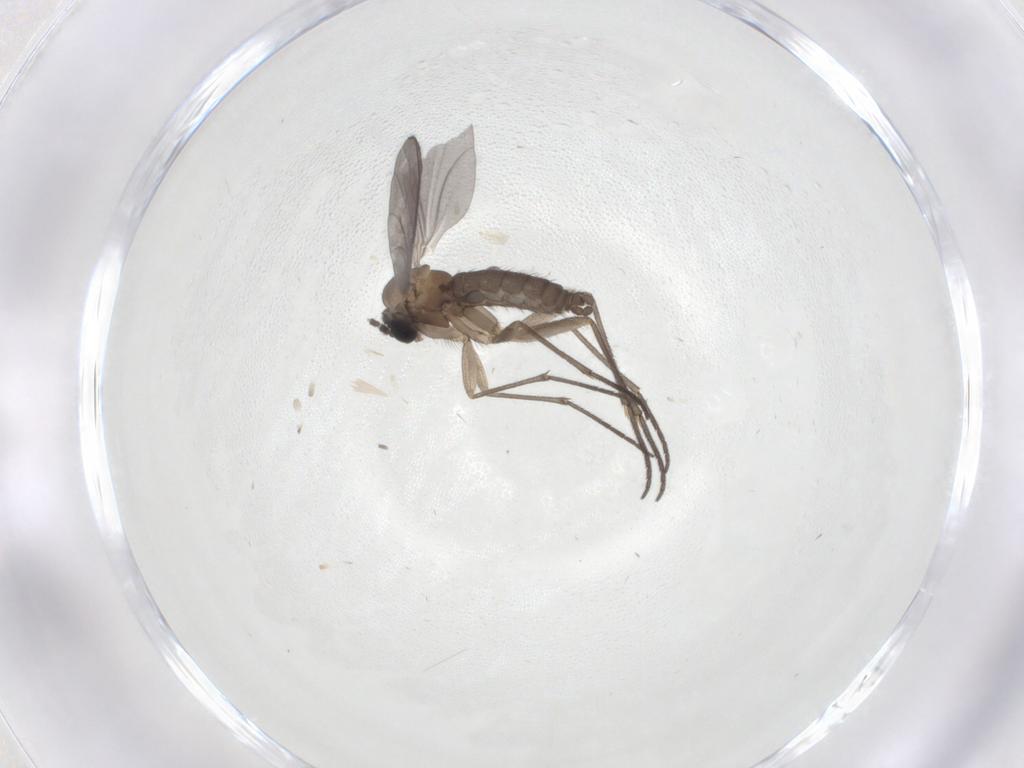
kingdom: Animalia
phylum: Arthropoda
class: Insecta
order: Diptera
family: Sciaridae
